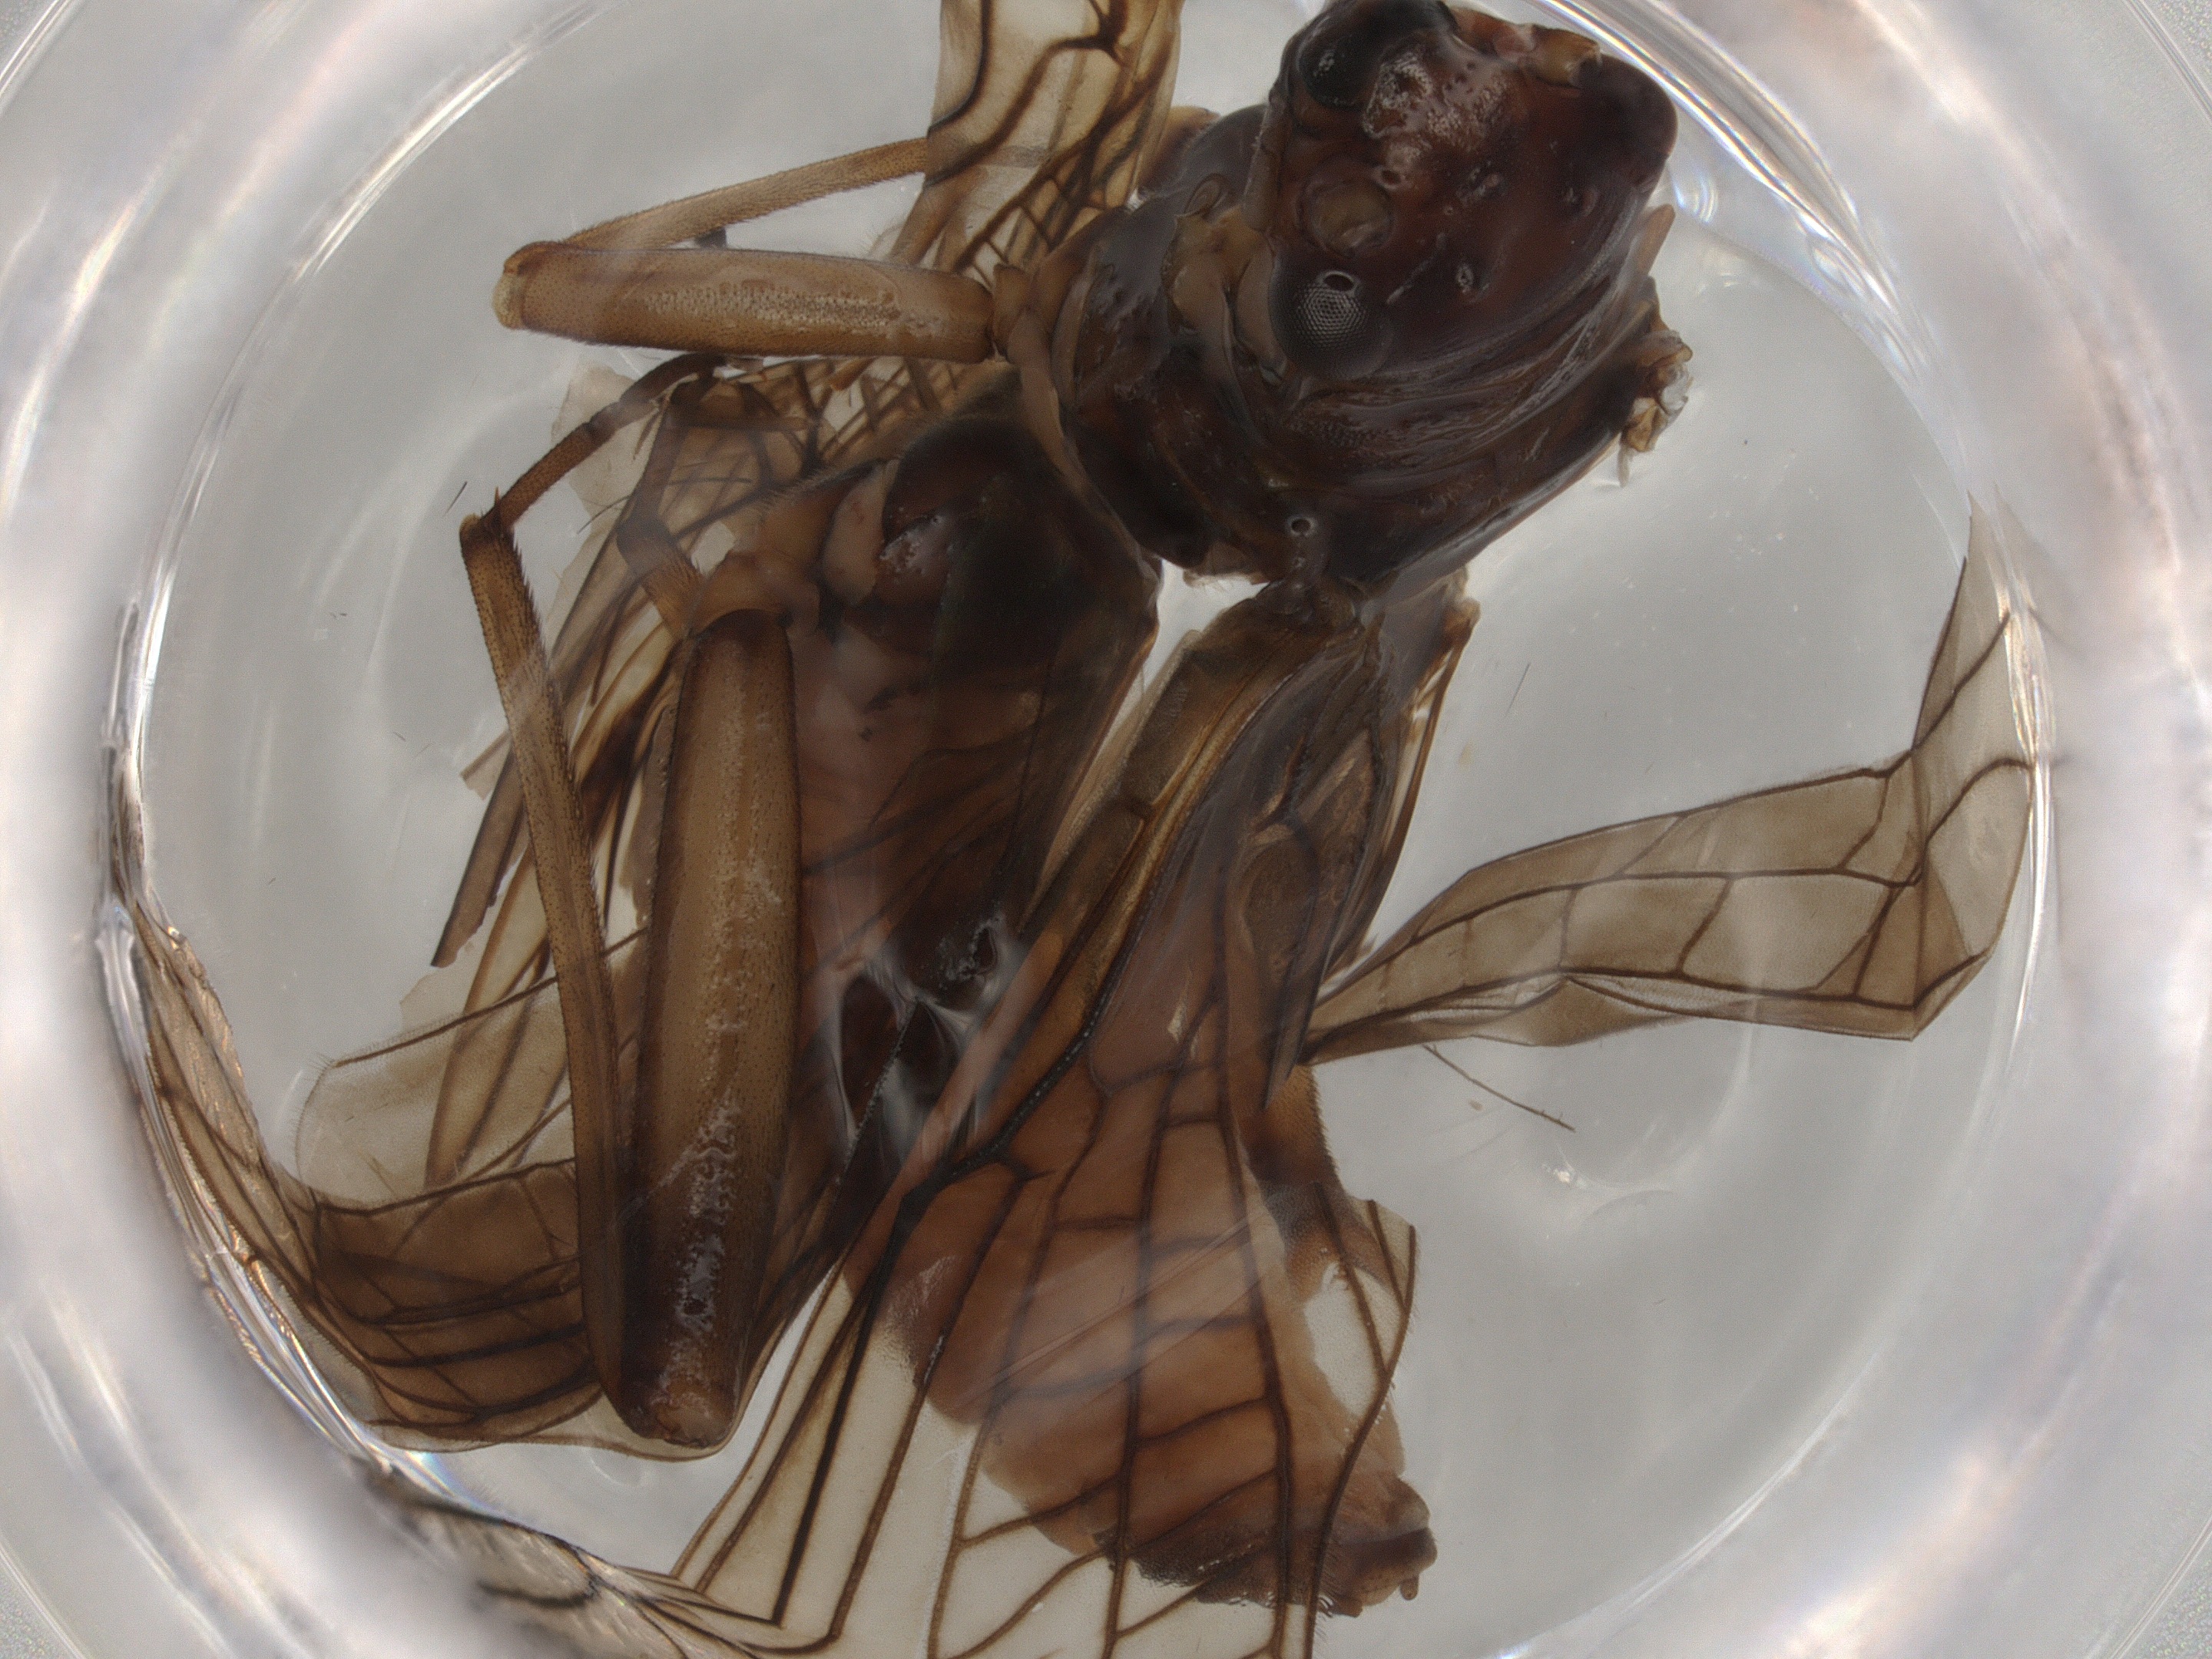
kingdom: Animalia
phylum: Arthropoda
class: Insecta
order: Plecoptera
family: Nemouridae
